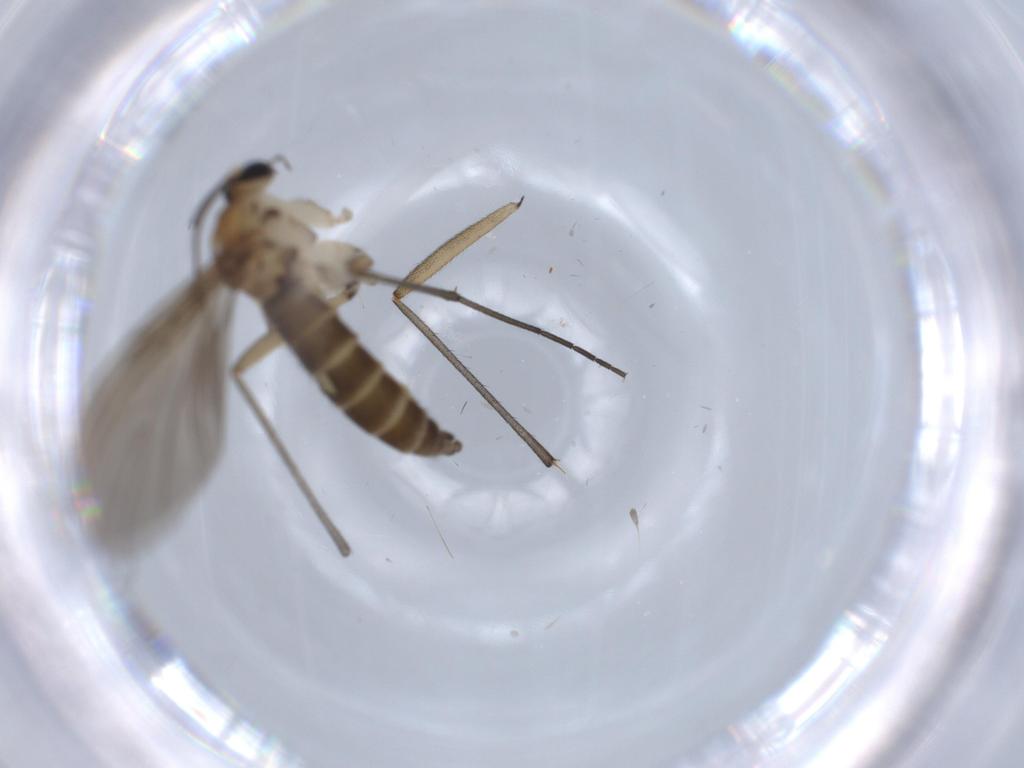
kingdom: Animalia
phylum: Arthropoda
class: Insecta
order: Diptera
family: Sciaridae
